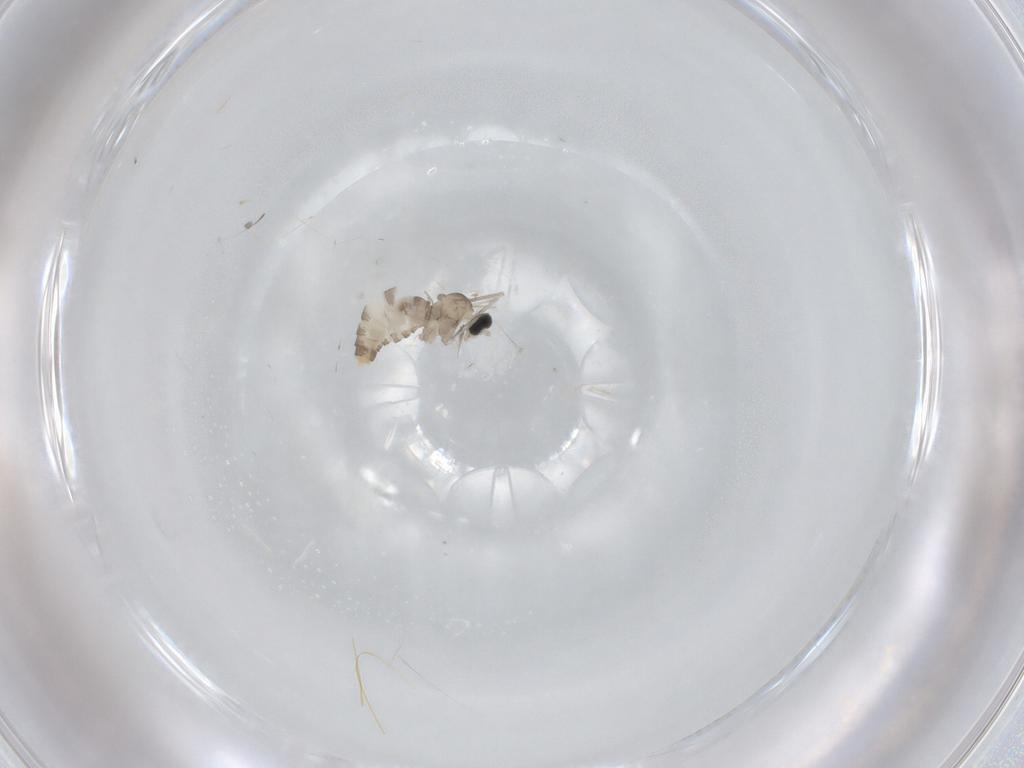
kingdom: Animalia
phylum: Arthropoda
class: Insecta
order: Diptera
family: Cecidomyiidae
